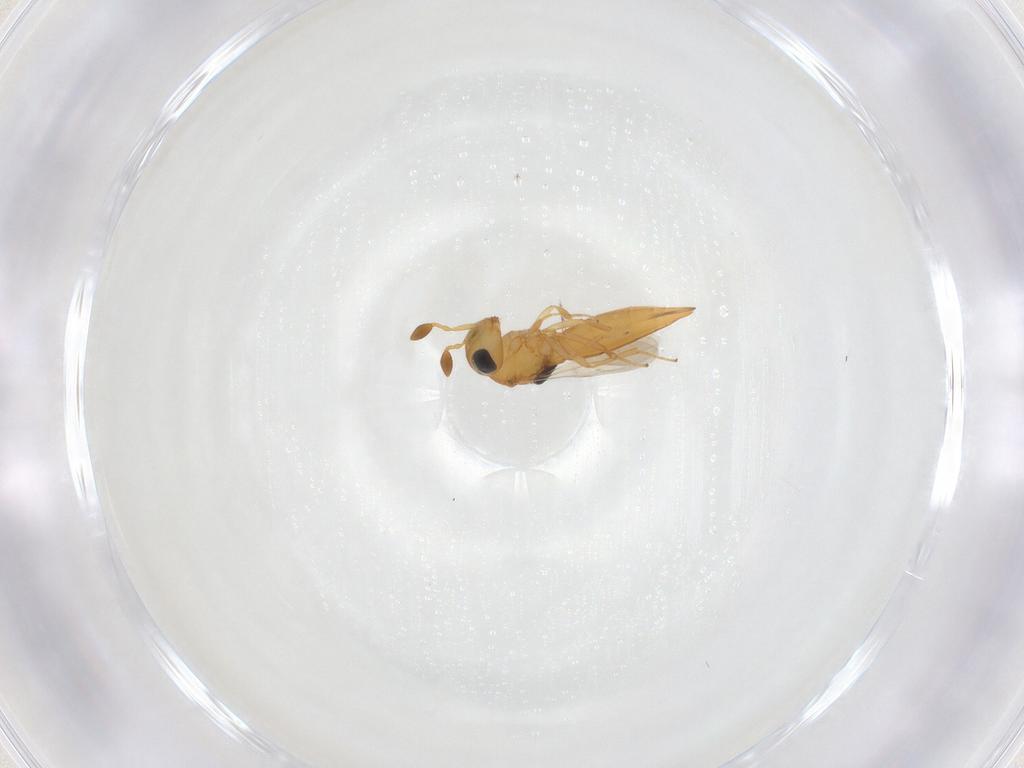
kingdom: Animalia
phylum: Arthropoda
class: Insecta
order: Hymenoptera
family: Scelionidae
